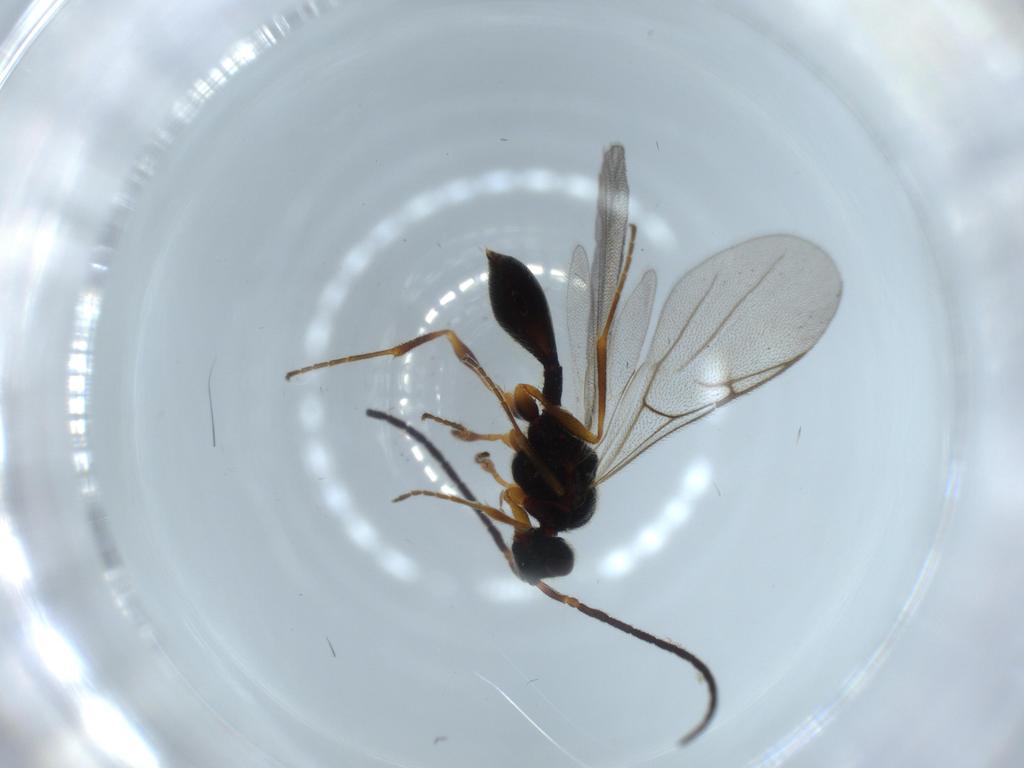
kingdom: Animalia
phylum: Arthropoda
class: Insecta
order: Hymenoptera
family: Diapriidae
